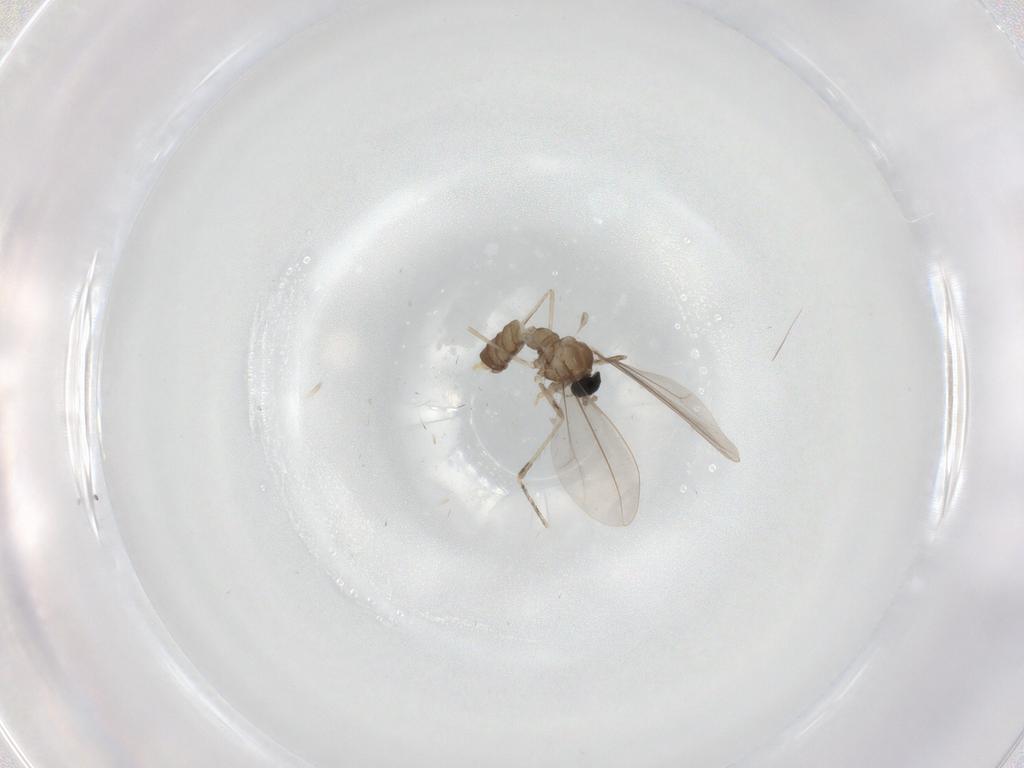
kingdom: Animalia
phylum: Arthropoda
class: Insecta
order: Diptera
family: Cecidomyiidae
